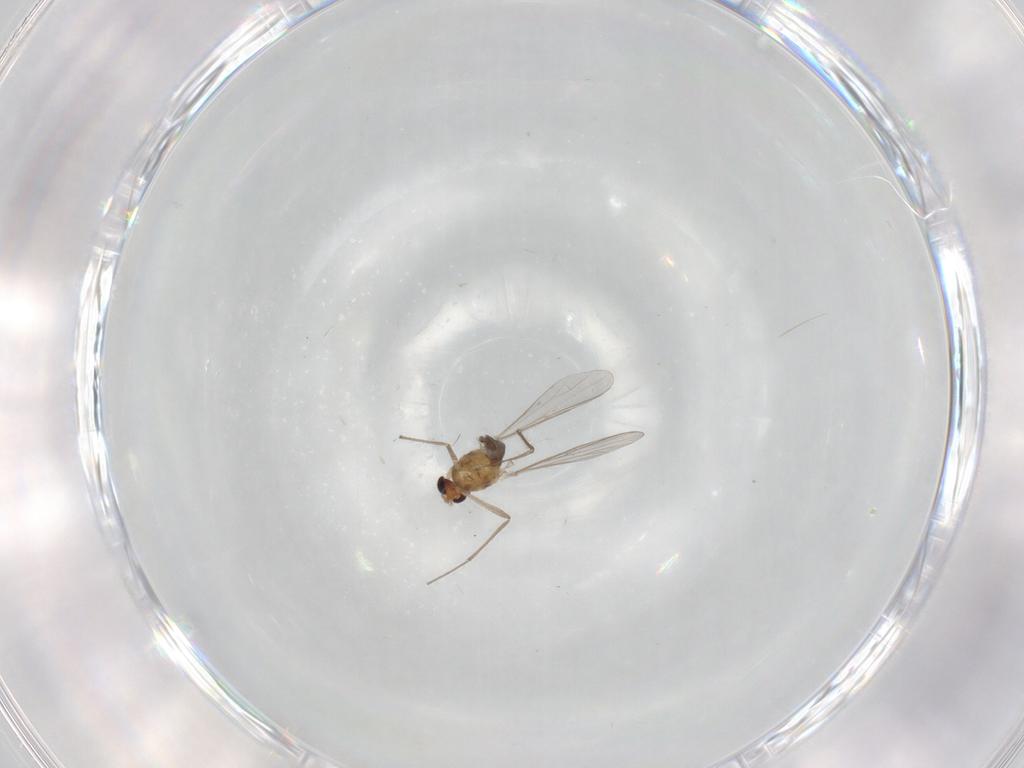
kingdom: Animalia
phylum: Arthropoda
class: Insecta
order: Diptera
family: Chironomidae
